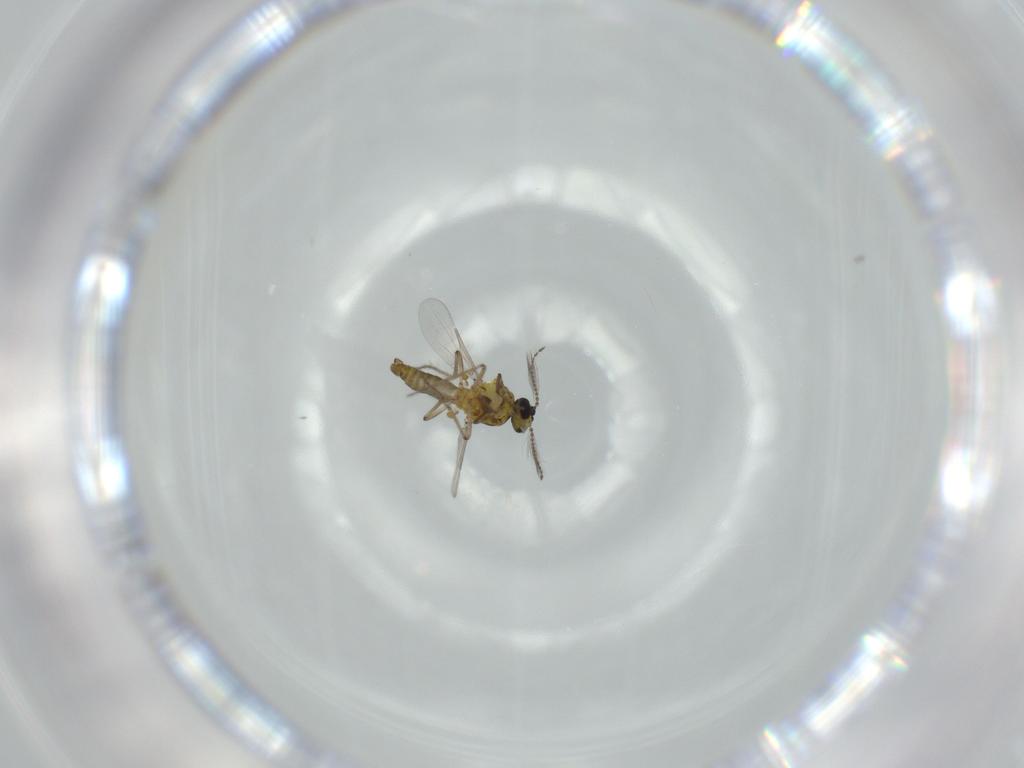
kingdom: Animalia
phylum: Arthropoda
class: Insecta
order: Diptera
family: Ceratopogonidae
